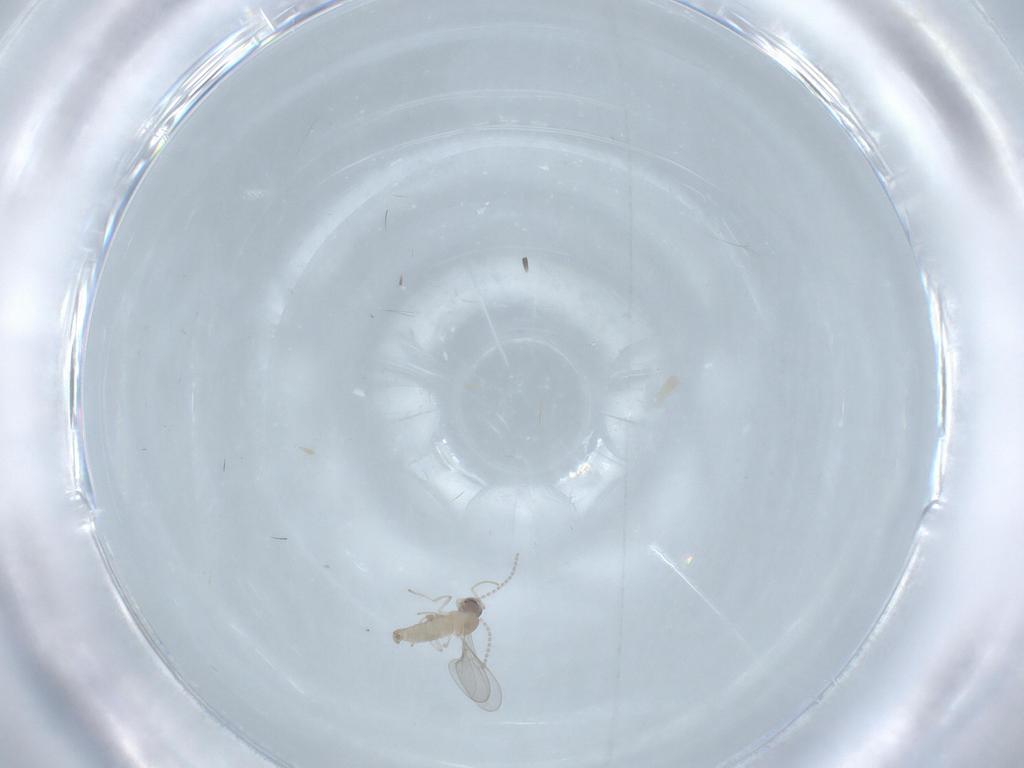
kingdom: Animalia
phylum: Arthropoda
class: Insecta
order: Diptera
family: Cecidomyiidae
